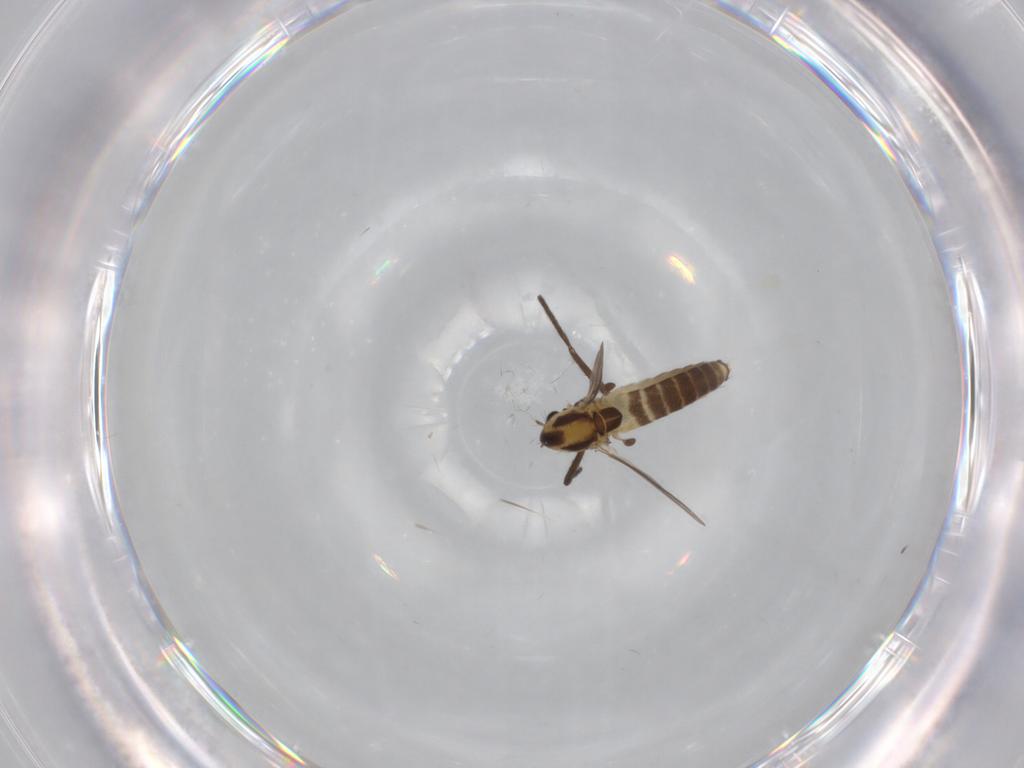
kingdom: Animalia
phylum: Arthropoda
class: Insecta
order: Diptera
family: Chironomidae
